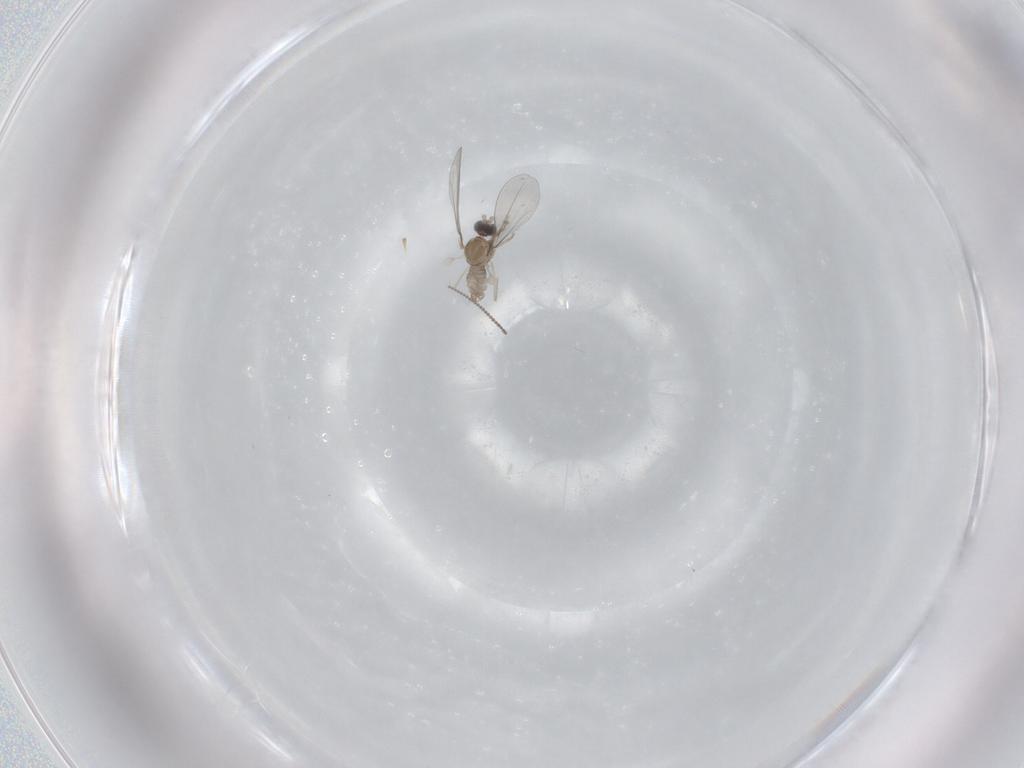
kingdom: Animalia
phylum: Arthropoda
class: Insecta
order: Diptera
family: Cecidomyiidae
